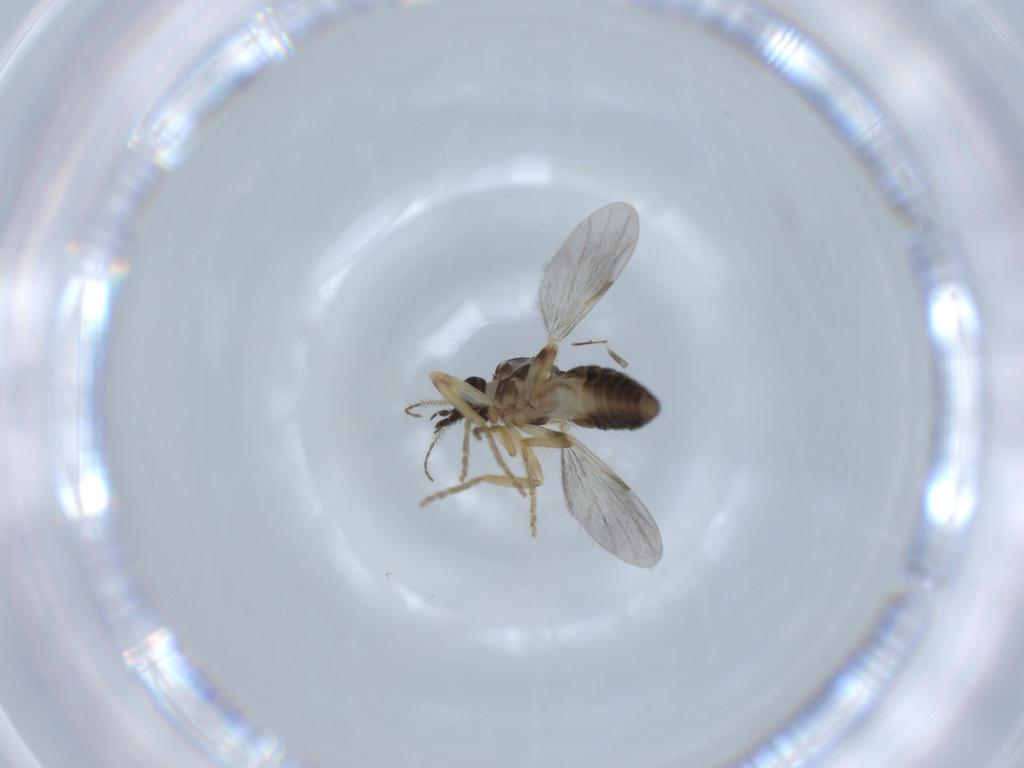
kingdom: Animalia
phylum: Arthropoda
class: Insecta
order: Diptera
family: Ceratopogonidae
